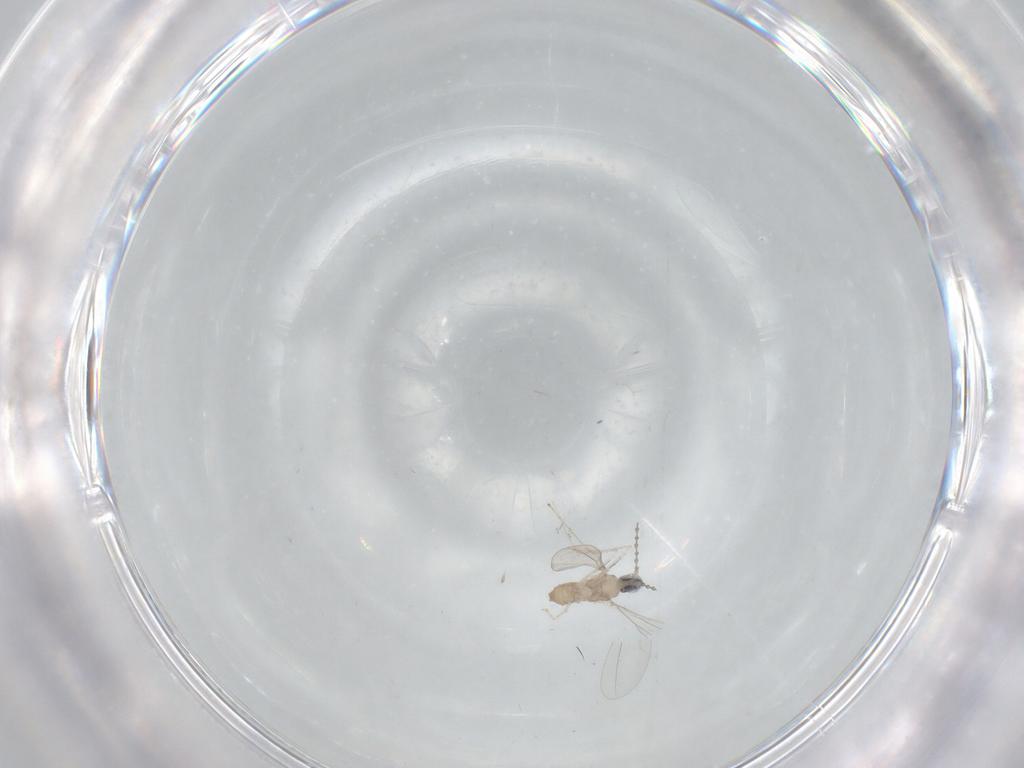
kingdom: Animalia
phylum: Arthropoda
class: Insecta
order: Diptera
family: Cecidomyiidae
